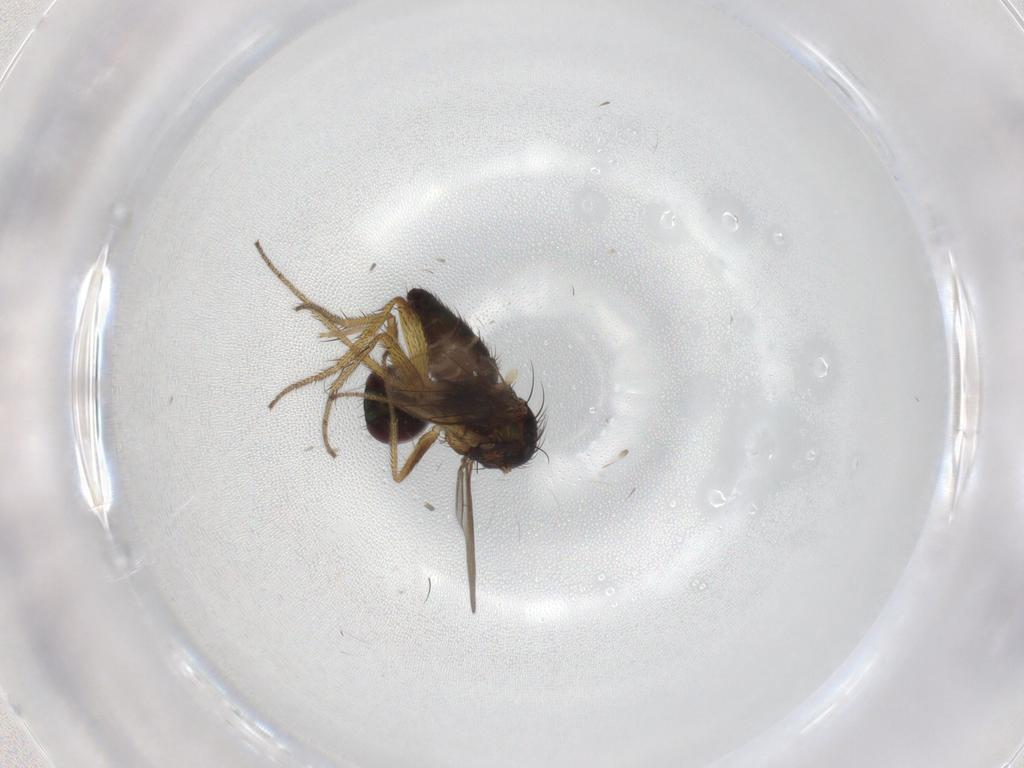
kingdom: Animalia
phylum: Arthropoda
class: Insecta
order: Diptera
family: Dolichopodidae
